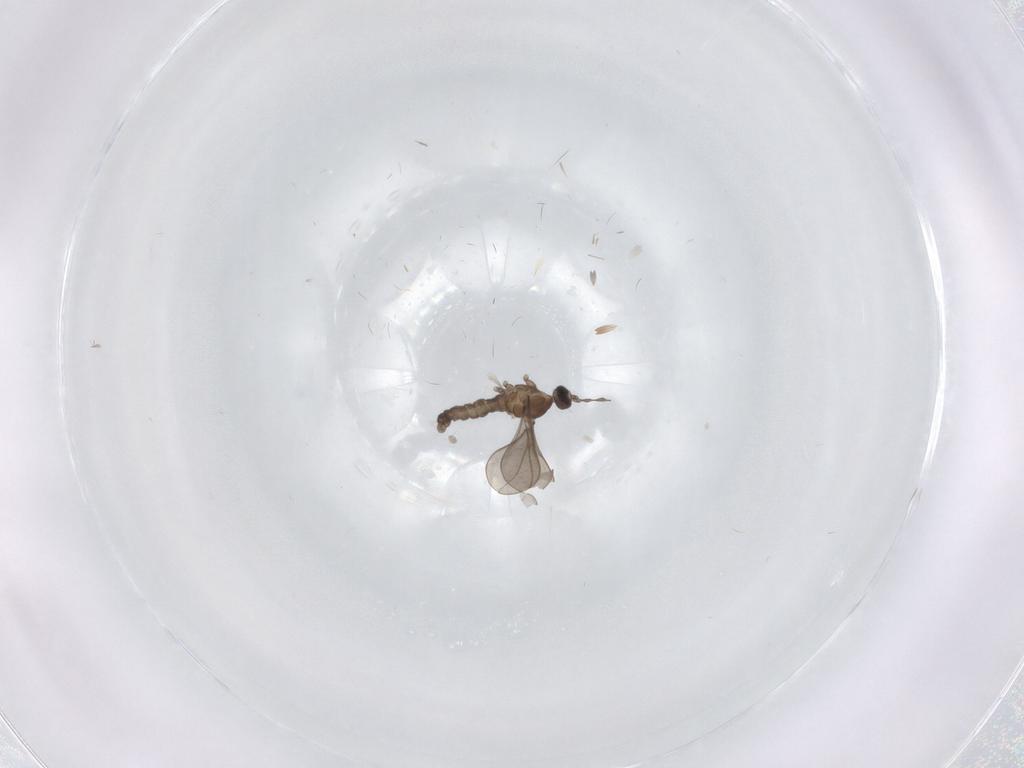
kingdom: Animalia
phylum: Arthropoda
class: Insecta
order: Diptera
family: Cecidomyiidae
